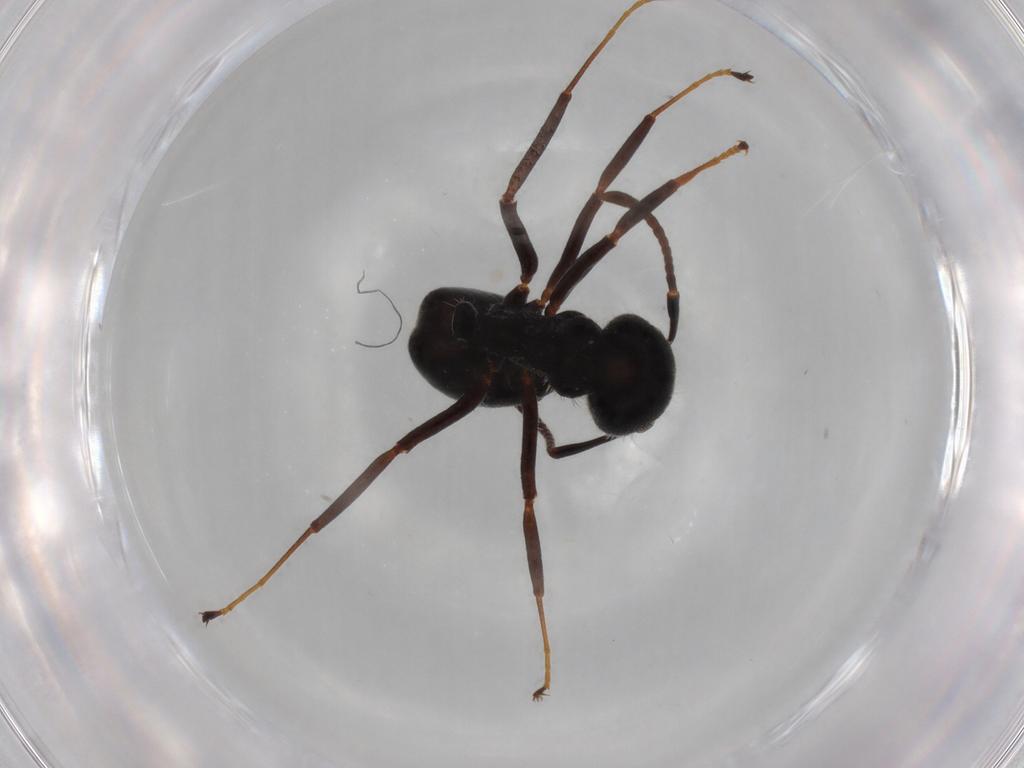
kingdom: Animalia
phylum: Arthropoda
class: Insecta
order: Hymenoptera
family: Formicidae
